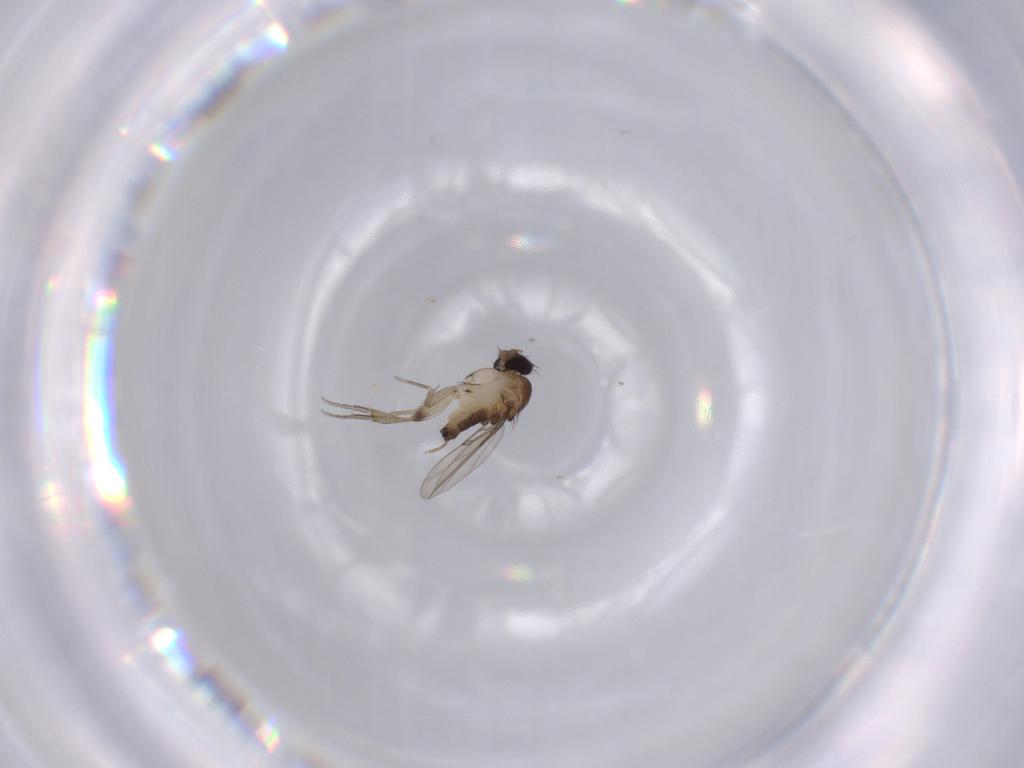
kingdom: Animalia
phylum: Arthropoda
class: Insecta
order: Diptera
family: Phoridae
